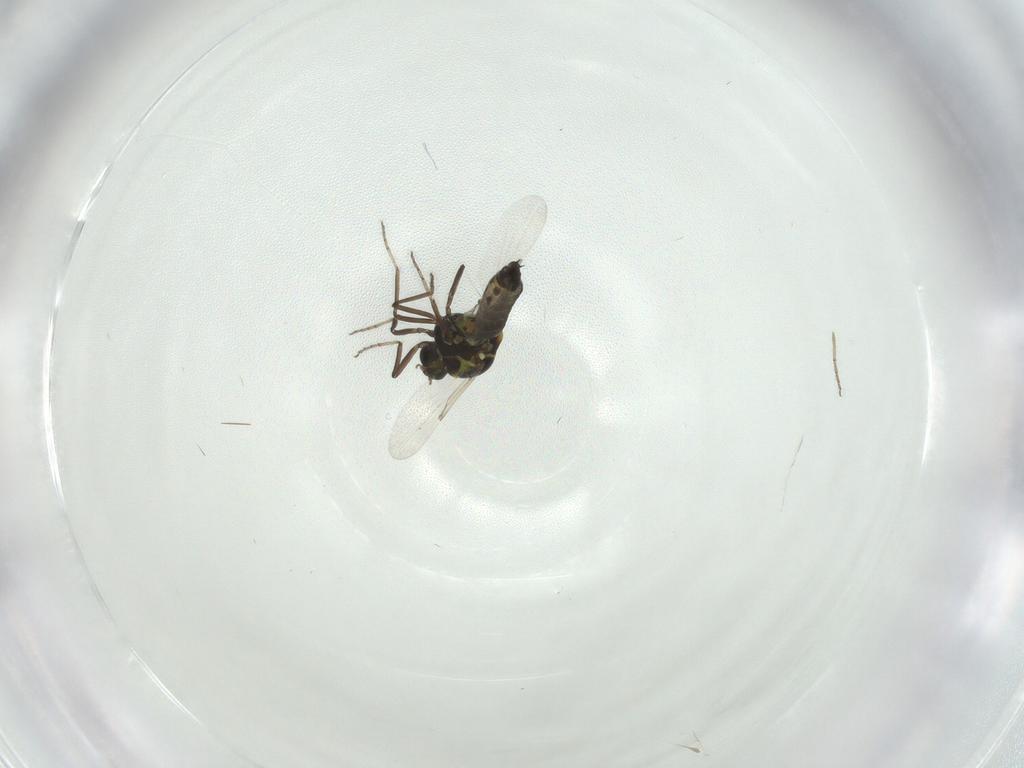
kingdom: Animalia
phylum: Arthropoda
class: Insecta
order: Diptera
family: Ceratopogonidae
